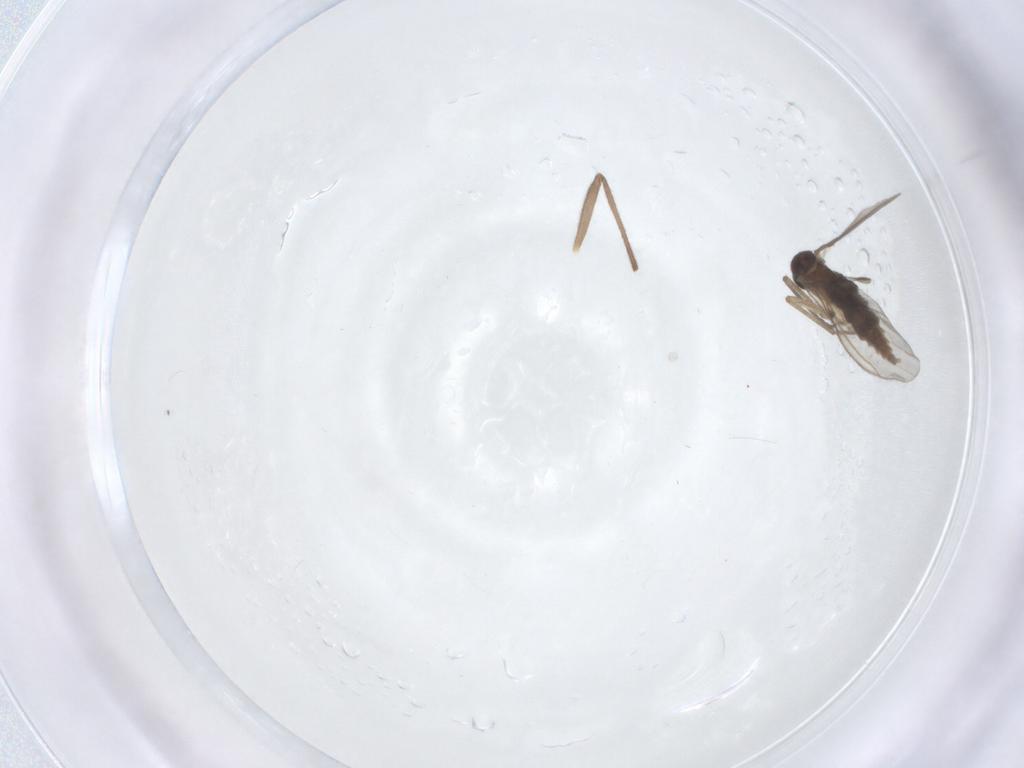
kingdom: Animalia
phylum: Arthropoda
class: Insecta
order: Diptera
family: Sciaridae
